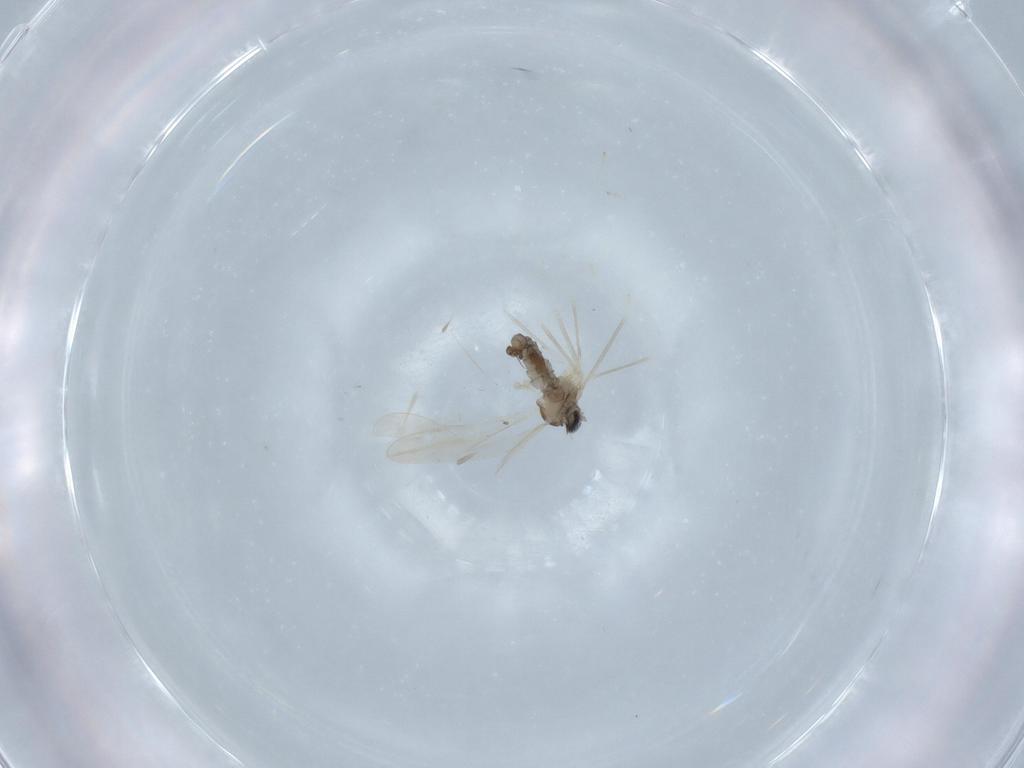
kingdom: Animalia
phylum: Arthropoda
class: Insecta
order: Diptera
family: Cecidomyiidae
